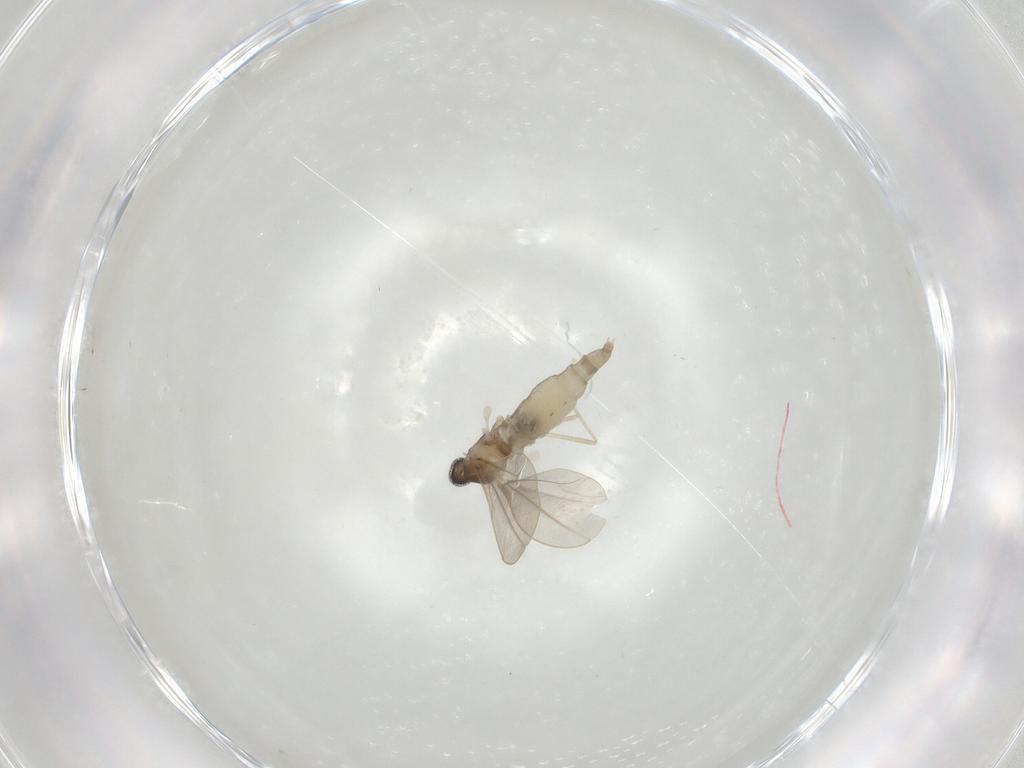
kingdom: Animalia
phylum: Arthropoda
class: Insecta
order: Diptera
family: Cecidomyiidae
